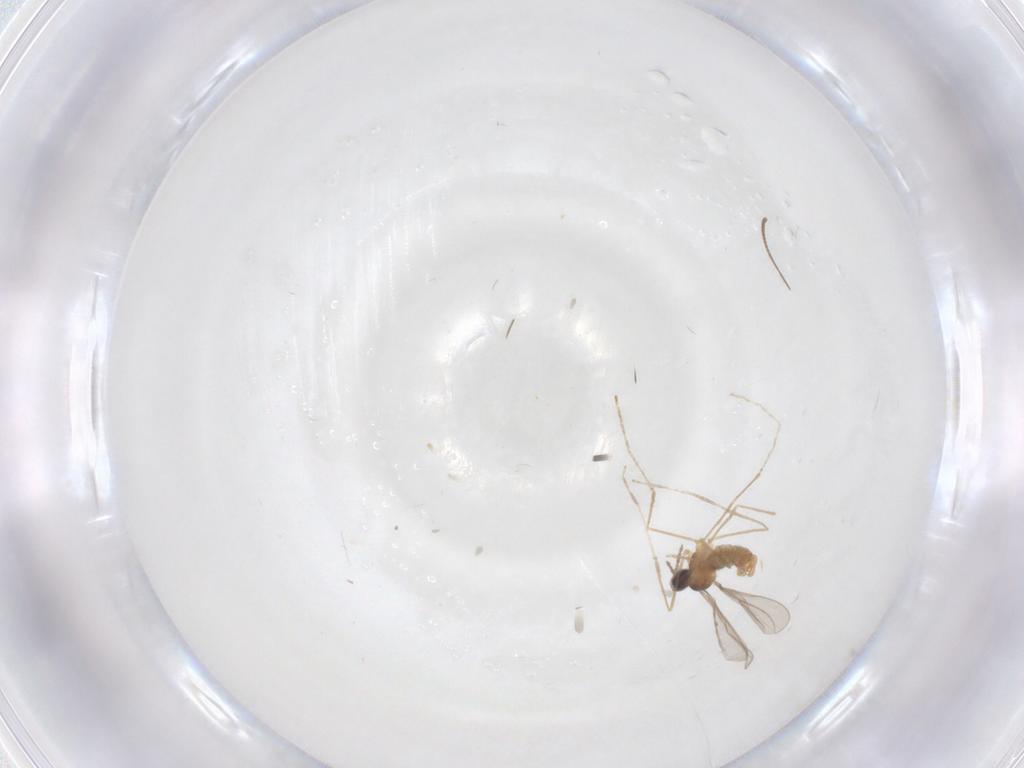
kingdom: Animalia
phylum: Arthropoda
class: Insecta
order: Diptera
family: Chironomidae
